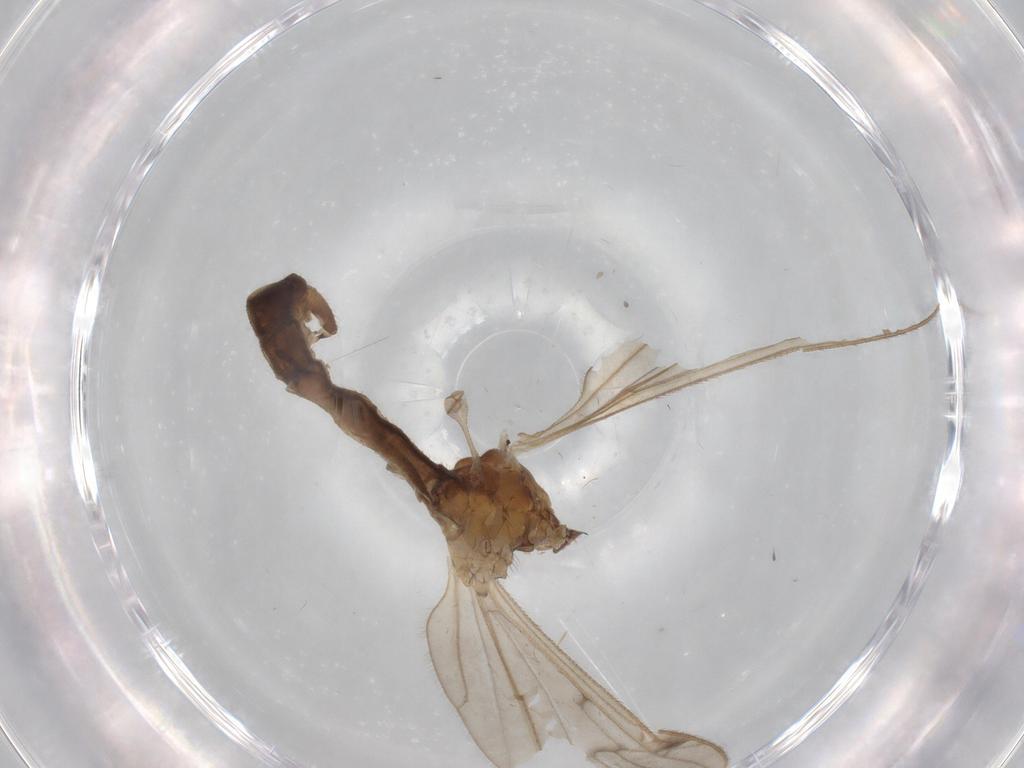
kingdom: Animalia
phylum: Arthropoda
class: Insecta
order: Diptera
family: Limoniidae
